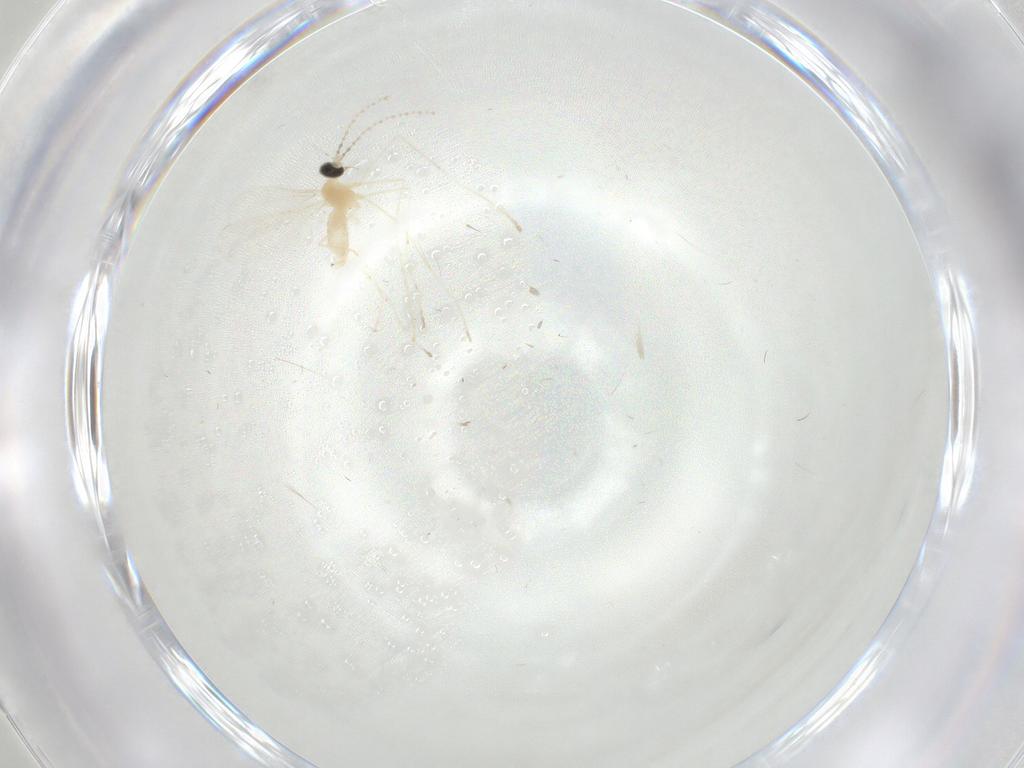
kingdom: Animalia
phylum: Arthropoda
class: Insecta
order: Diptera
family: Cecidomyiidae
